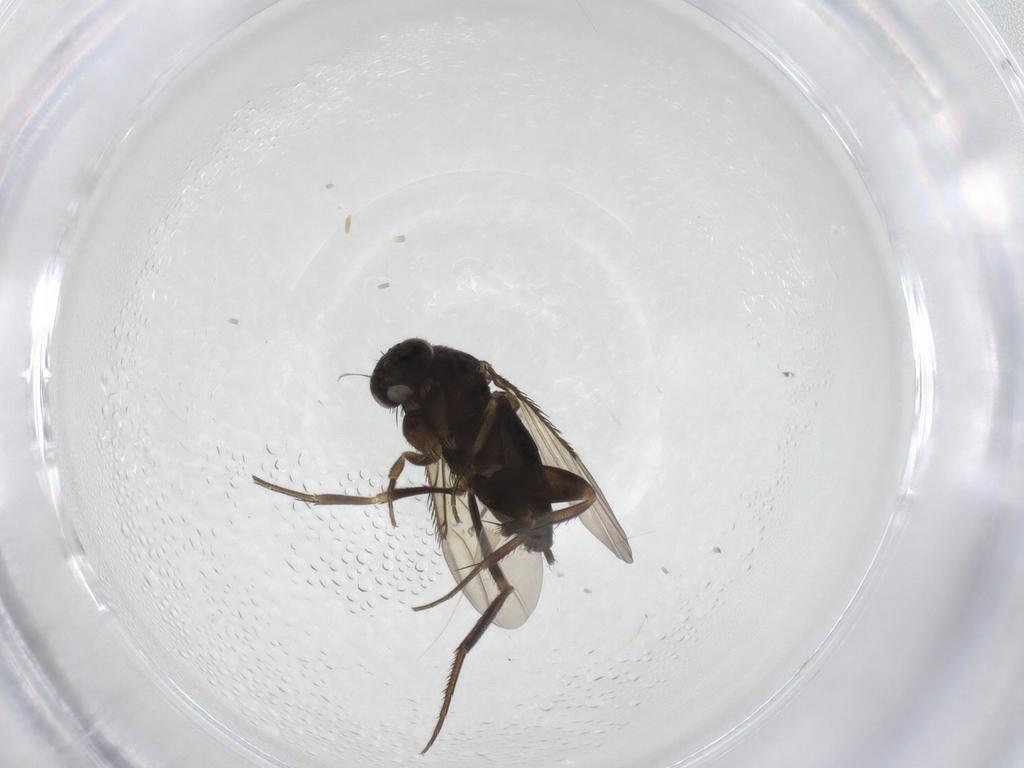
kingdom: Animalia
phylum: Arthropoda
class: Insecta
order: Diptera
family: Phoridae
